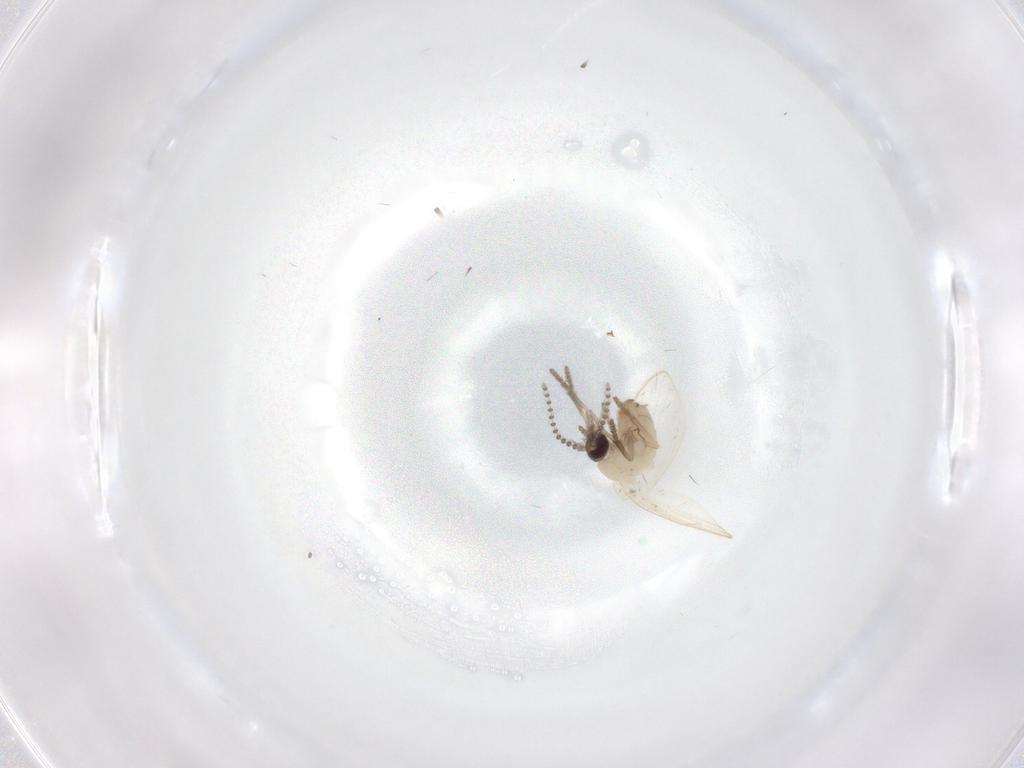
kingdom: Animalia
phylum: Arthropoda
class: Insecta
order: Diptera
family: Psychodidae
